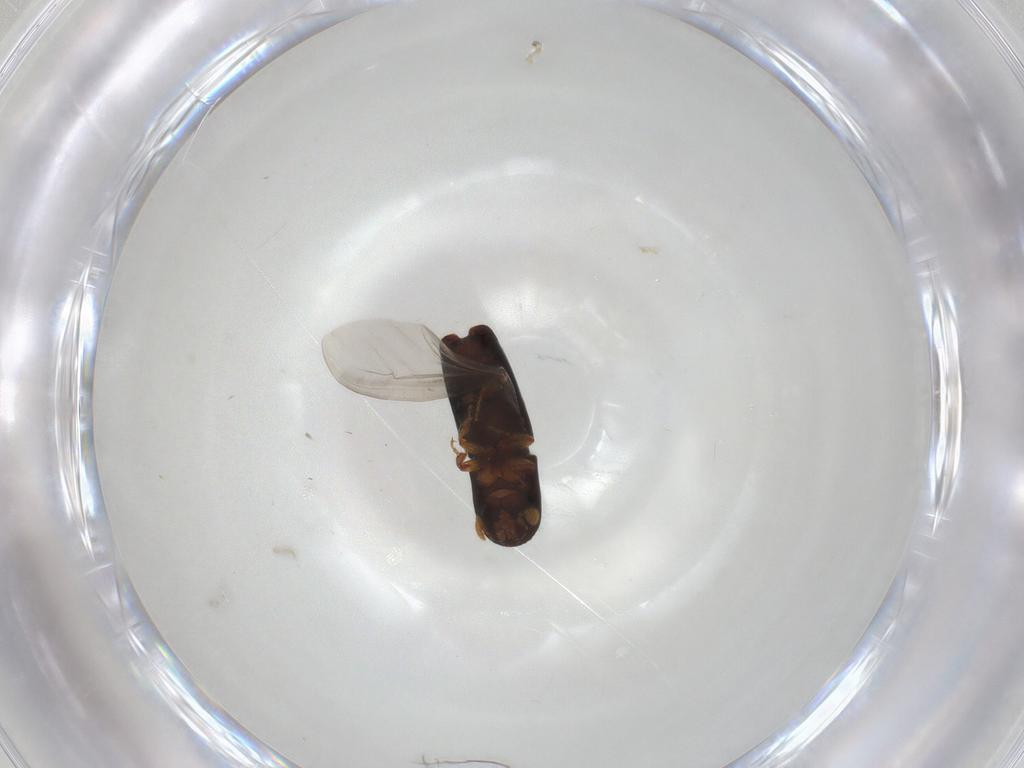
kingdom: Animalia
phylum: Arthropoda
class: Insecta
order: Coleoptera
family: Curculionidae
